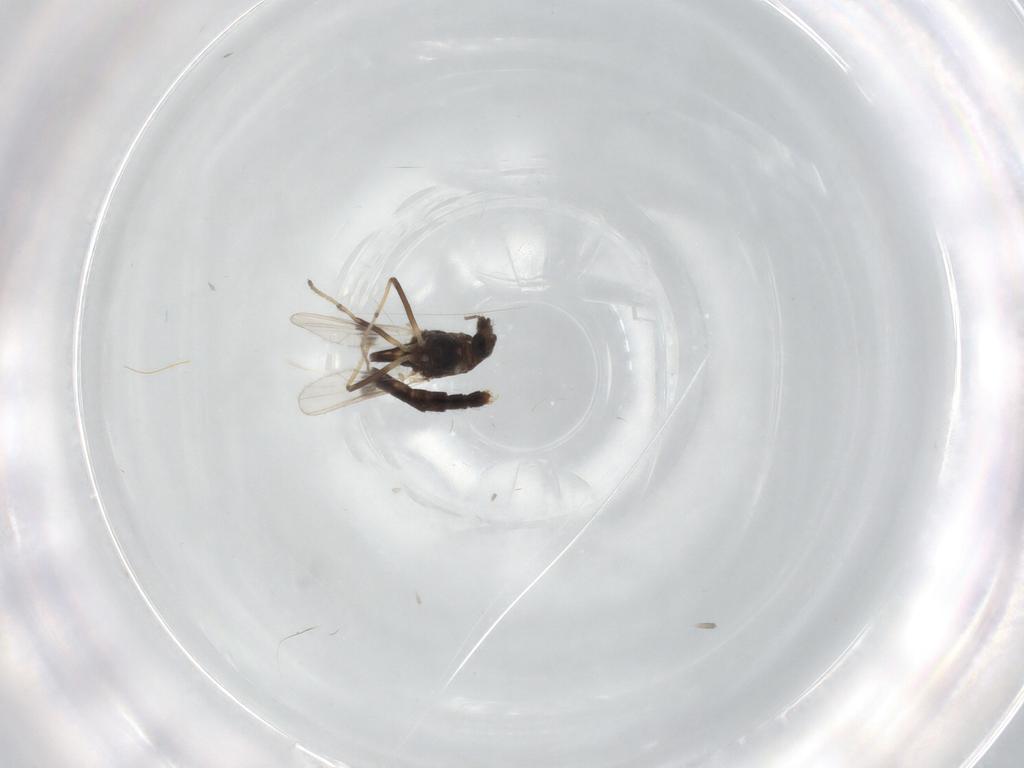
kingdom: Animalia
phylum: Arthropoda
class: Insecta
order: Diptera
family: Chironomidae
